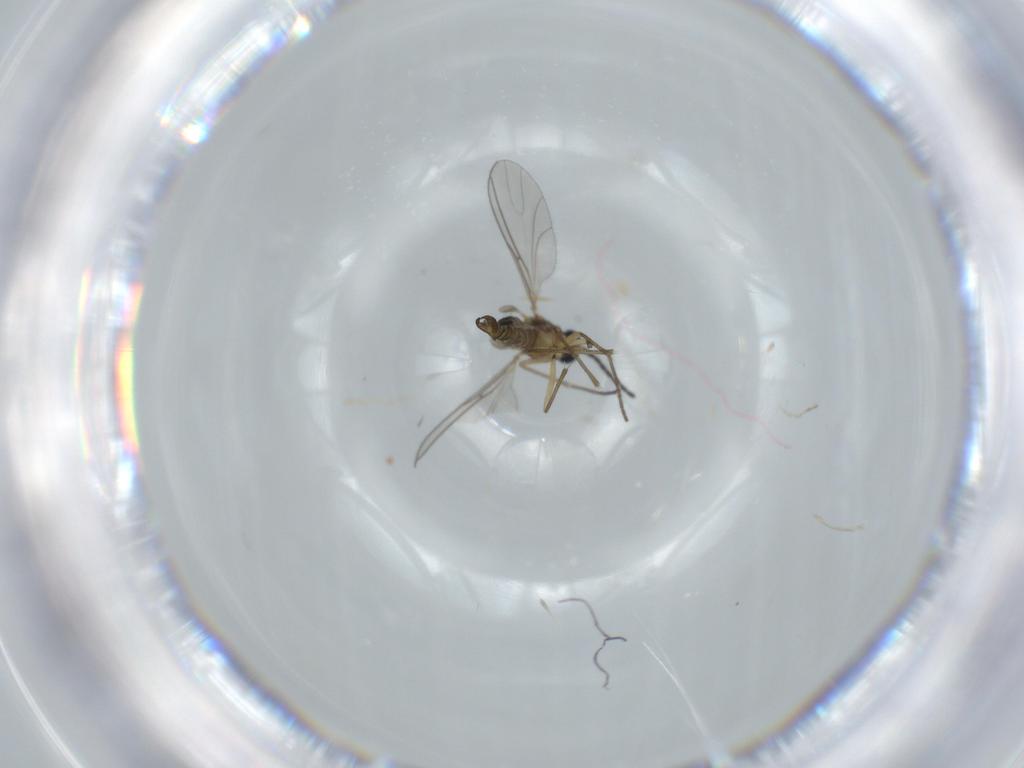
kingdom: Animalia
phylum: Arthropoda
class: Insecta
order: Diptera
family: Sciaridae
